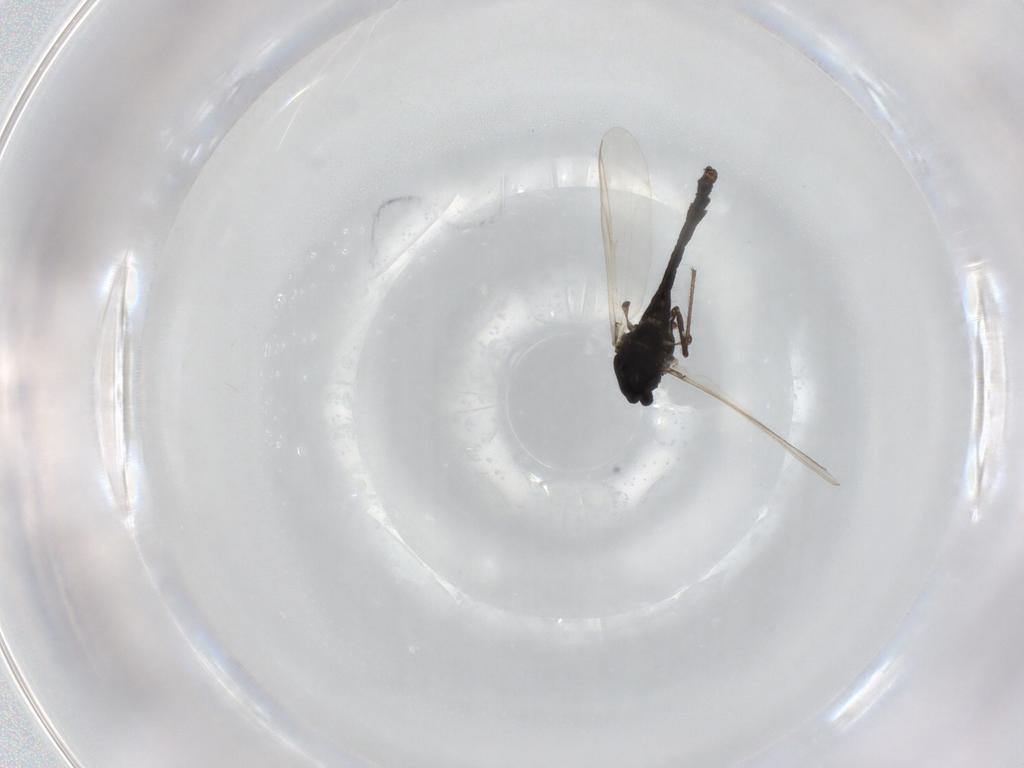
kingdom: Animalia
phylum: Arthropoda
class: Insecta
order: Diptera
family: Chironomidae
